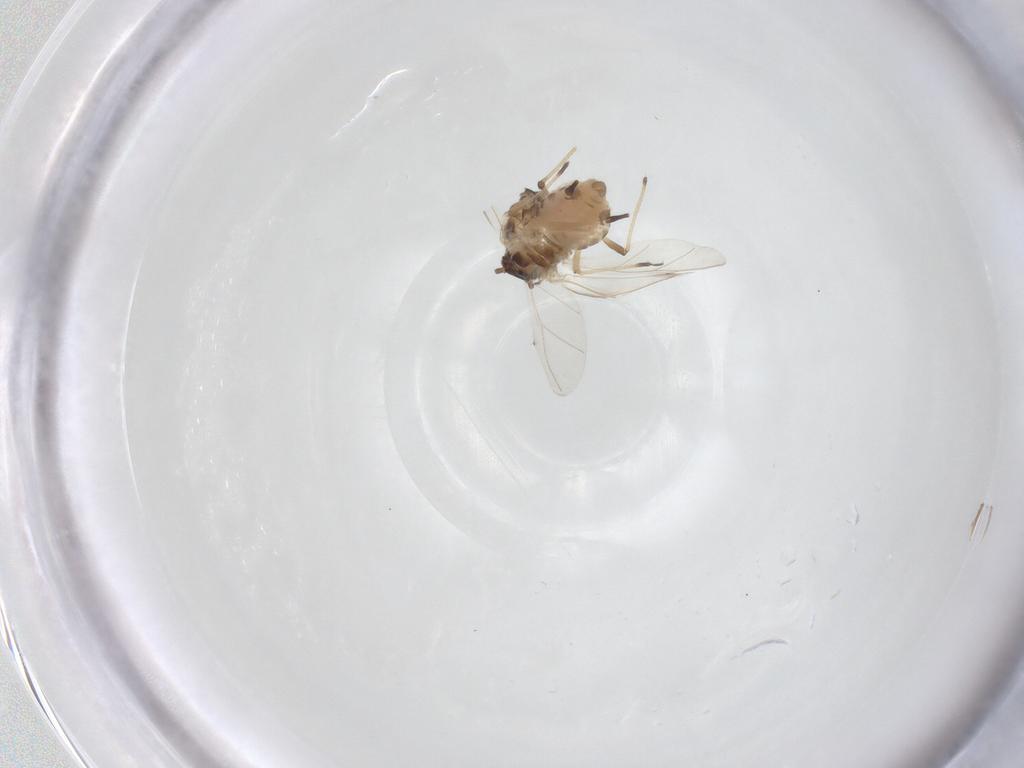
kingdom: Animalia
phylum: Arthropoda
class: Insecta
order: Hemiptera
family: Aphididae
